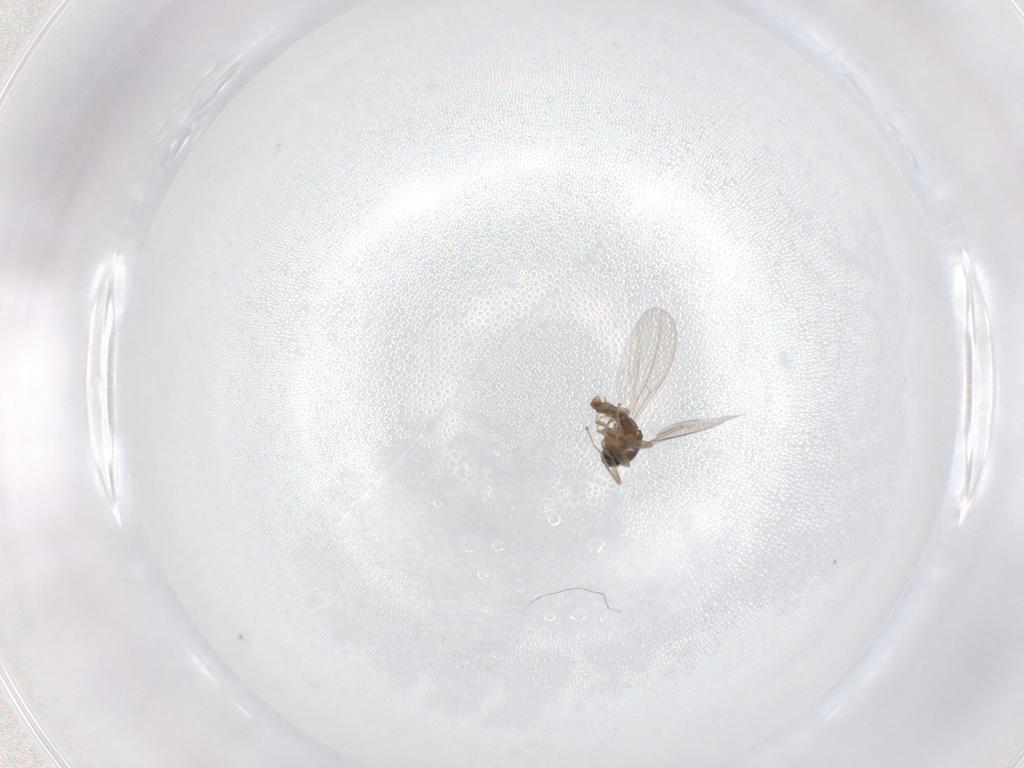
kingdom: Animalia
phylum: Arthropoda
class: Insecta
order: Diptera
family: Cecidomyiidae
